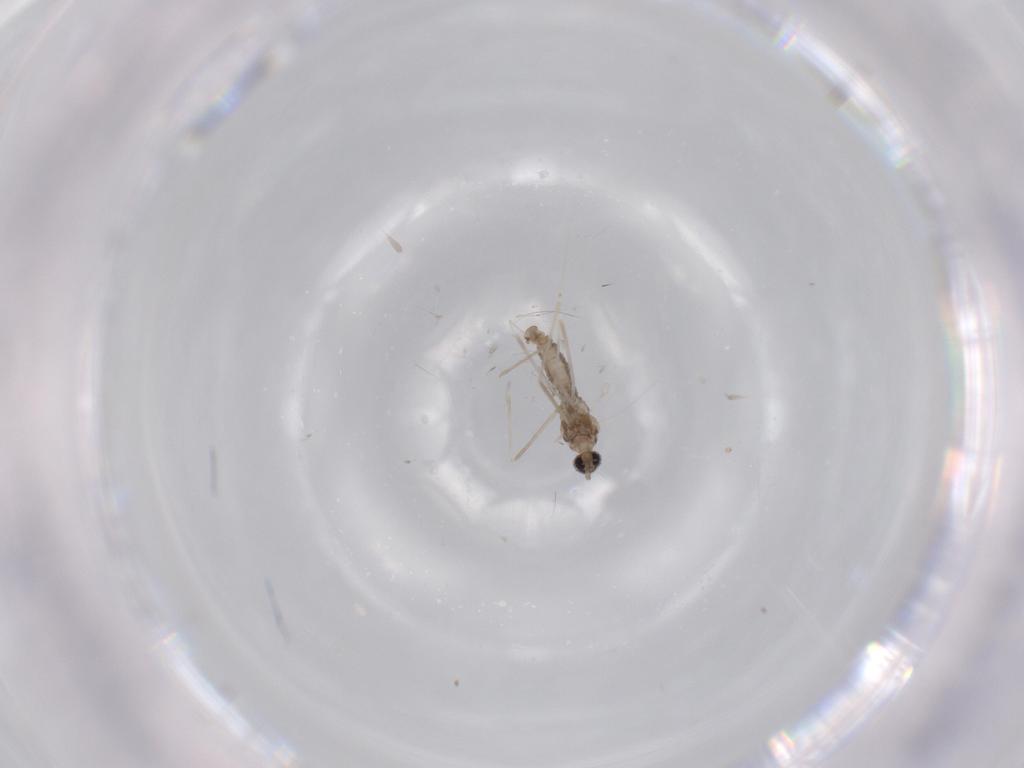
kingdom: Animalia
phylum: Arthropoda
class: Insecta
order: Diptera
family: Cecidomyiidae
